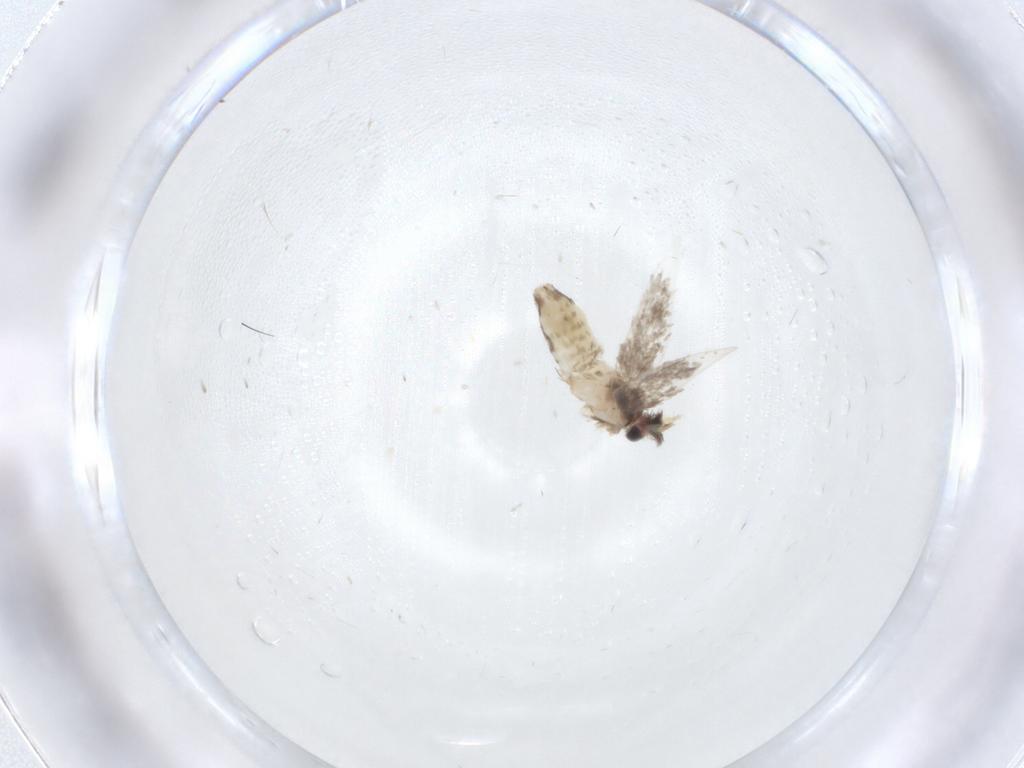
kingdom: Animalia
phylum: Arthropoda
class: Insecta
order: Lepidoptera
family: Nepticulidae
